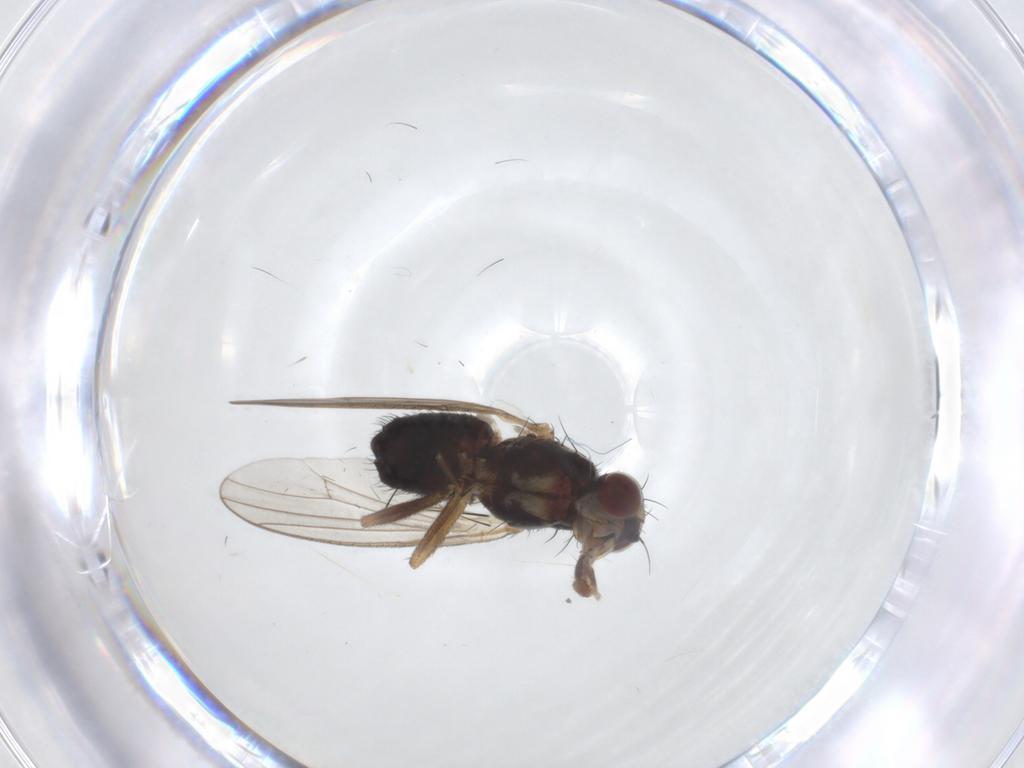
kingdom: Animalia
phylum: Arthropoda
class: Insecta
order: Diptera
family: Heleomyzidae
